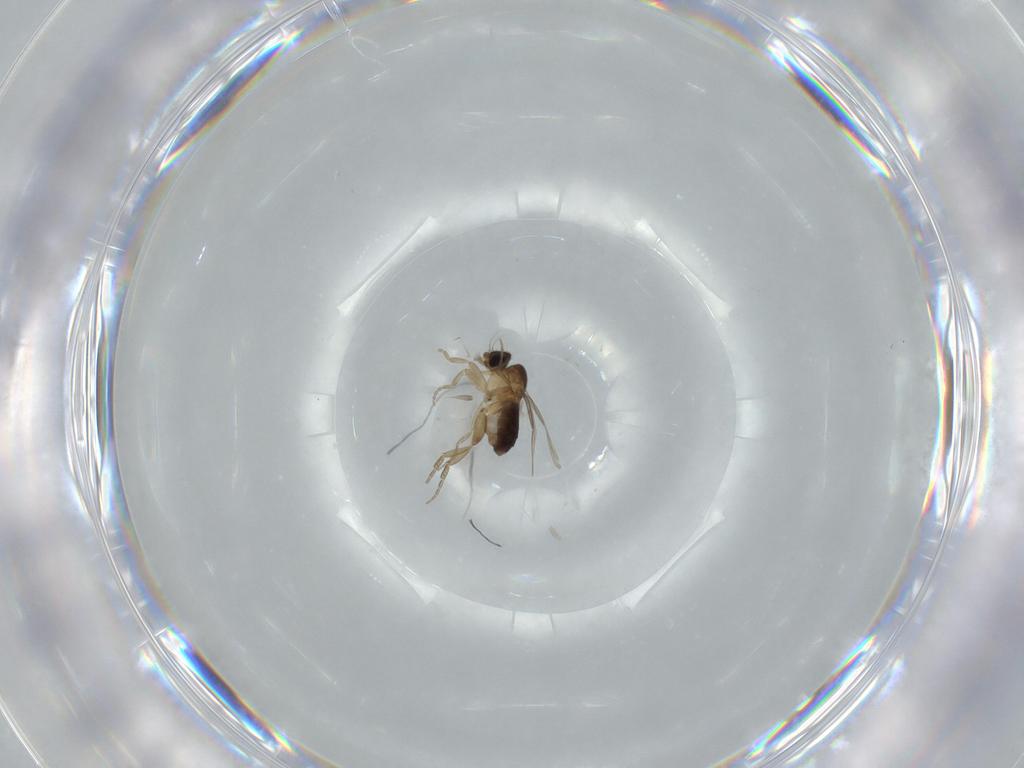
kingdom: Animalia
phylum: Arthropoda
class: Insecta
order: Diptera
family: Phoridae
